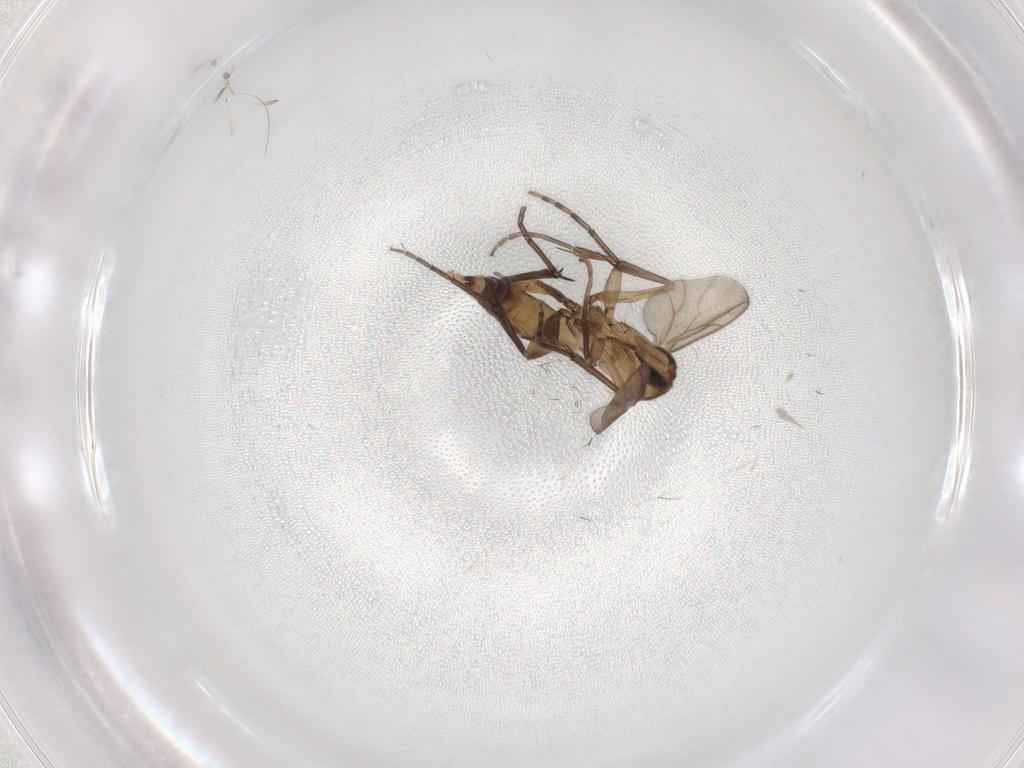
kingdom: Animalia
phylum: Arthropoda
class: Insecta
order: Diptera
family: Mycetophilidae
